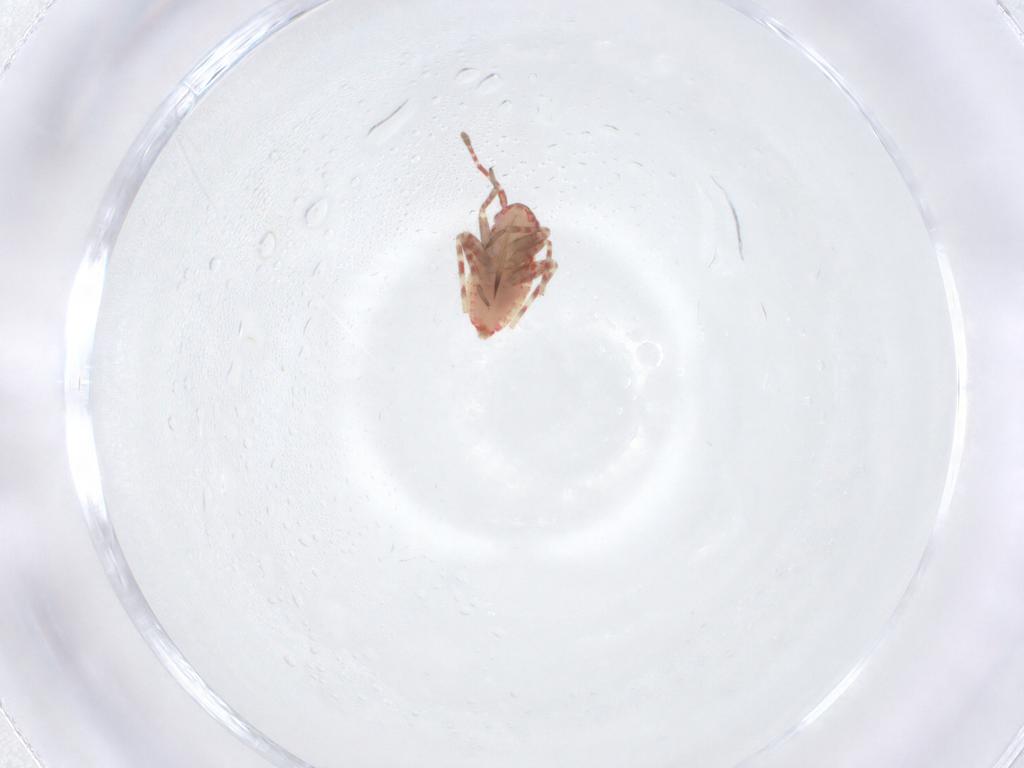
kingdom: Animalia
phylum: Arthropoda
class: Insecta
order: Hemiptera
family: Miridae
